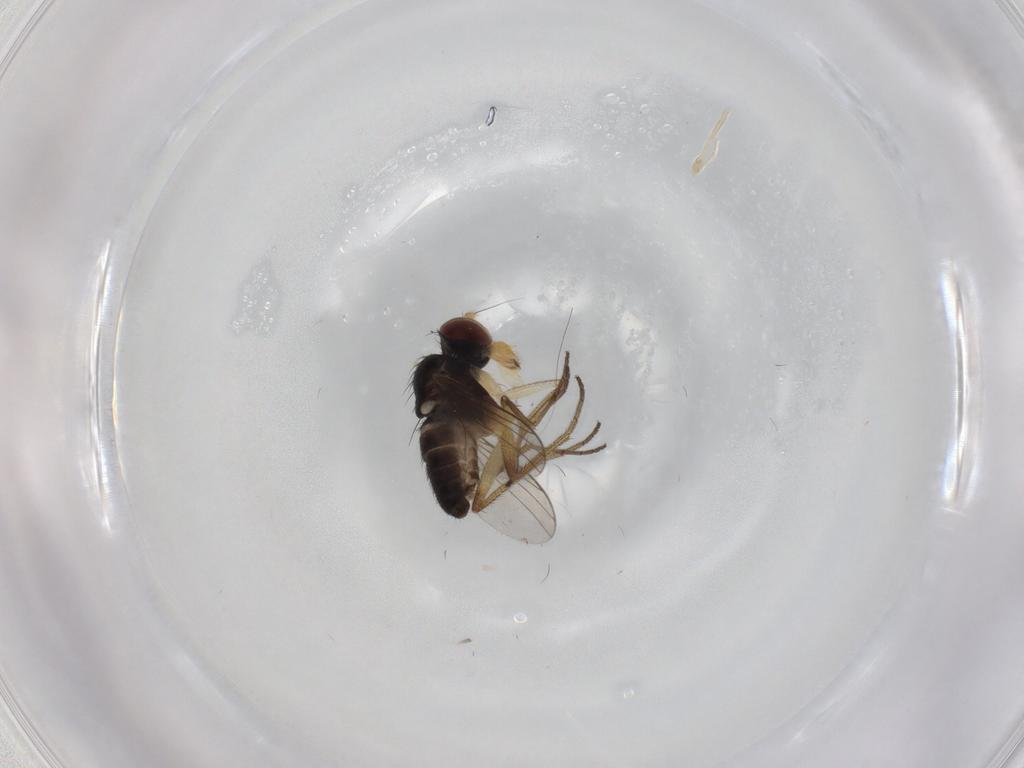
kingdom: Animalia
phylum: Arthropoda
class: Insecta
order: Diptera
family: Dolichopodidae
